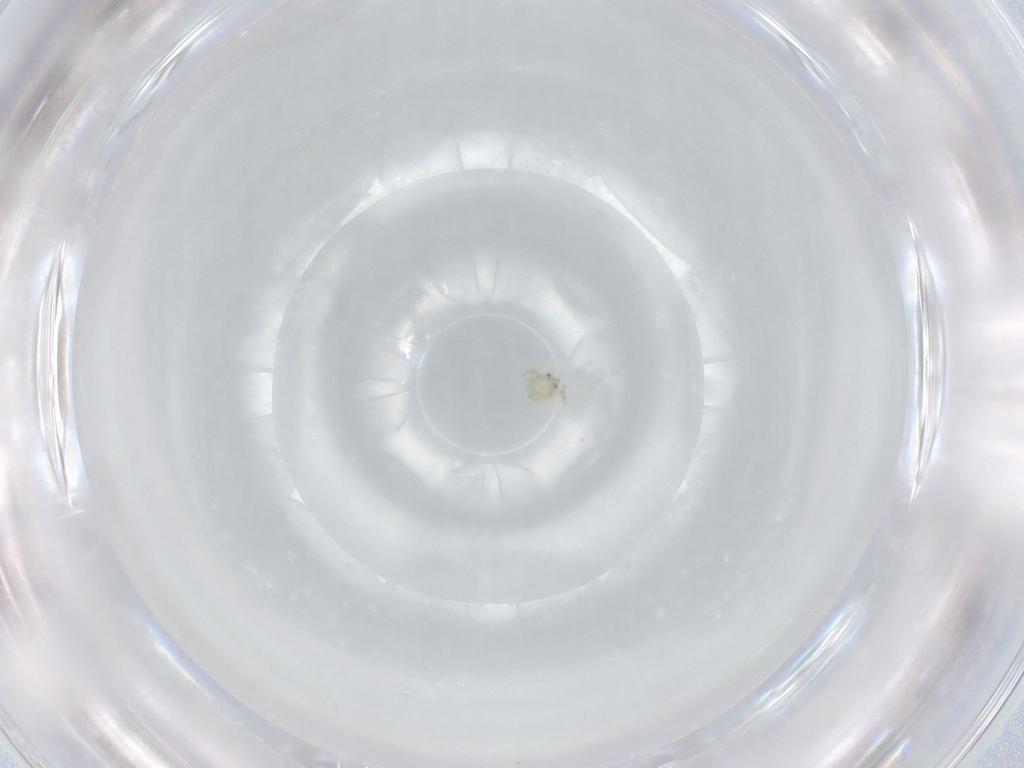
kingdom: Animalia
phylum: Arthropoda
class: Arachnida
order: Trombidiformes
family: Arrenuridae
